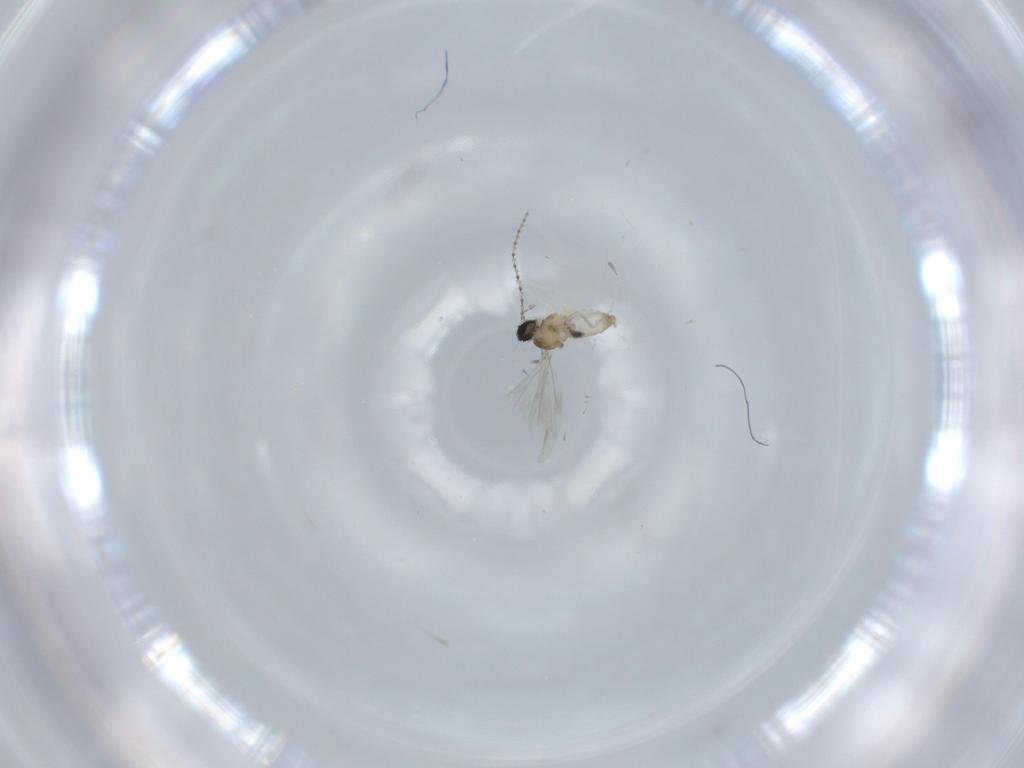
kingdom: Animalia
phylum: Arthropoda
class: Insecta
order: Diptera
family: Cecidomyiidae
